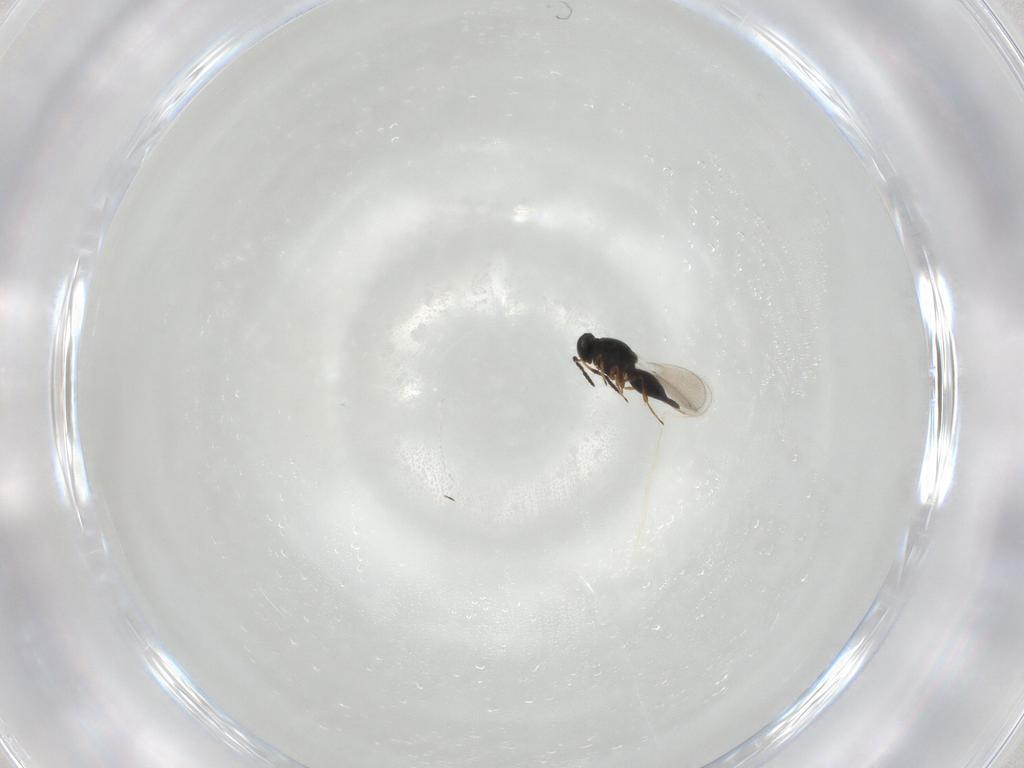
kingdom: Animalia
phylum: Arthropoda
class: Insecta
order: Hymenoptera
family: Platygastridae
